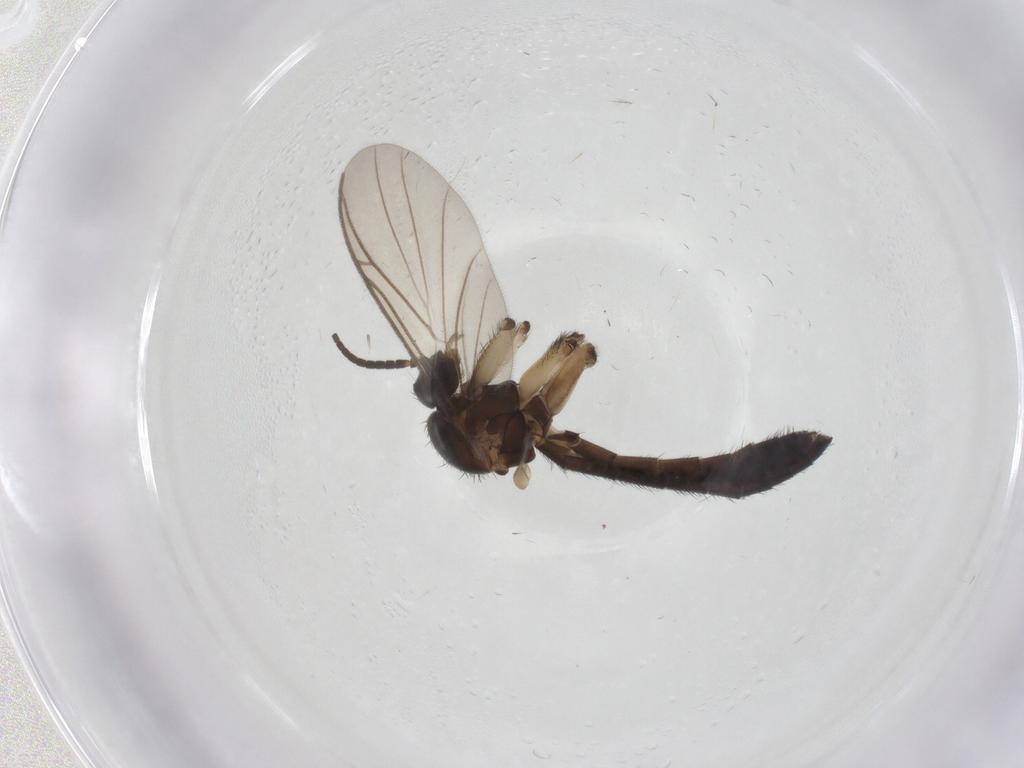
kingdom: Animalia
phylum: Arthropoda
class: Insecta
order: Diptera
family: Keroplatidae
